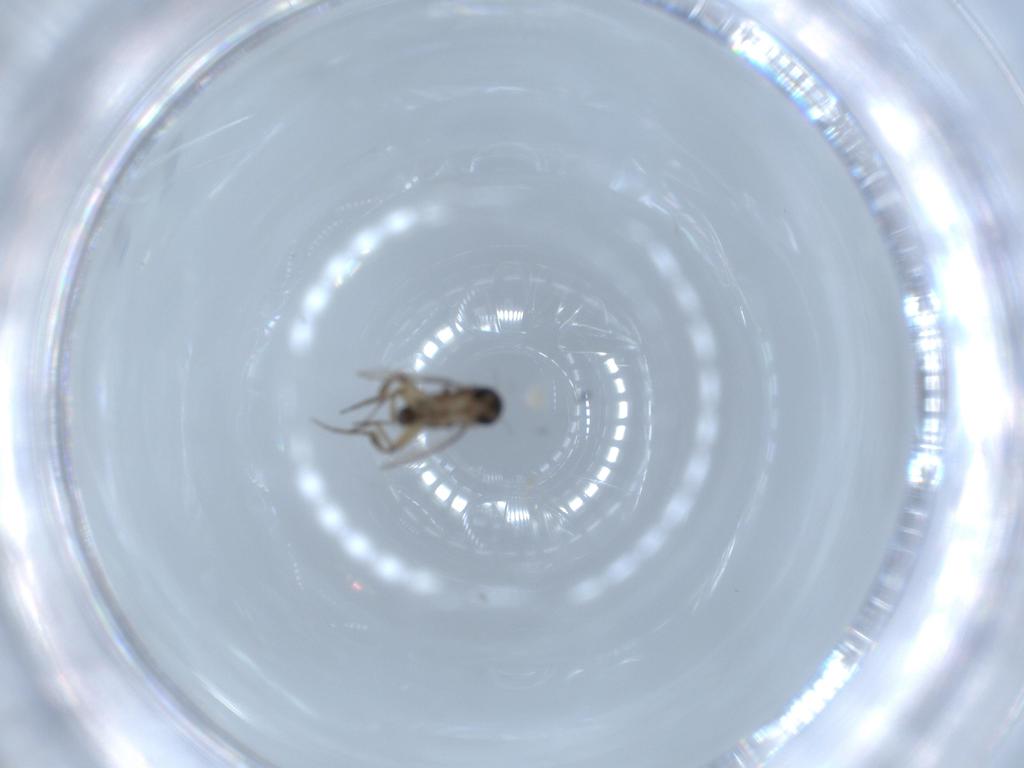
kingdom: Animalia
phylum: Arthropoda
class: Insecta
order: Diptera
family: Phoridae
